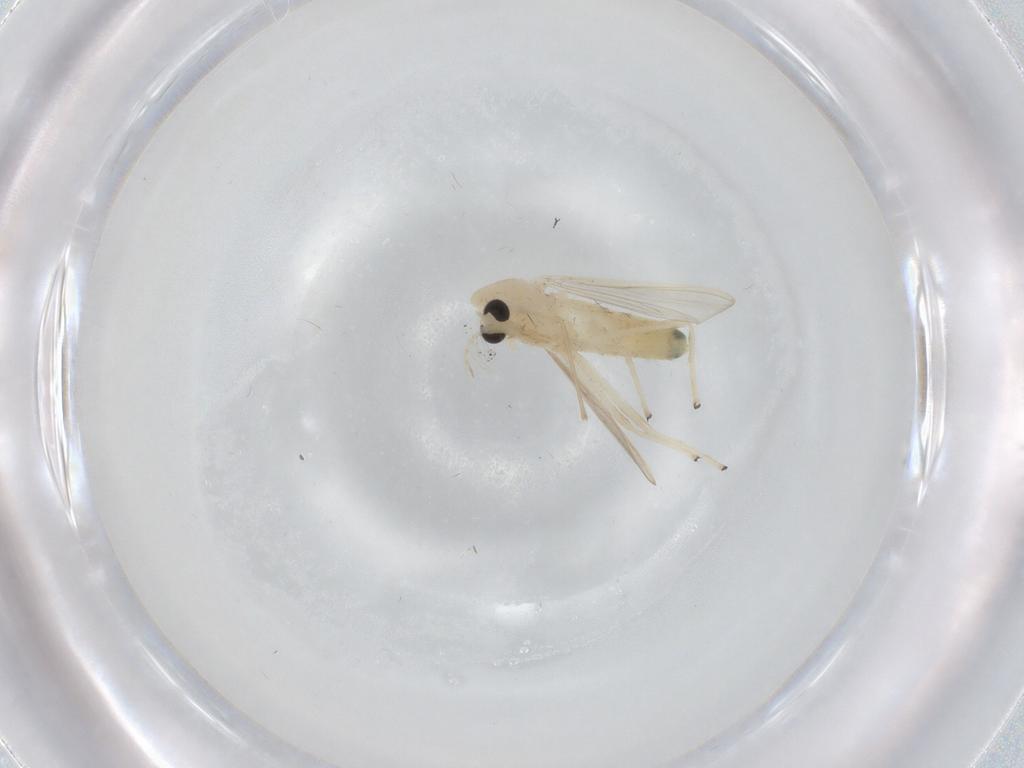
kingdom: Animalia
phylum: Arthropoda
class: Insecta
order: Diptera
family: Chironomidae
